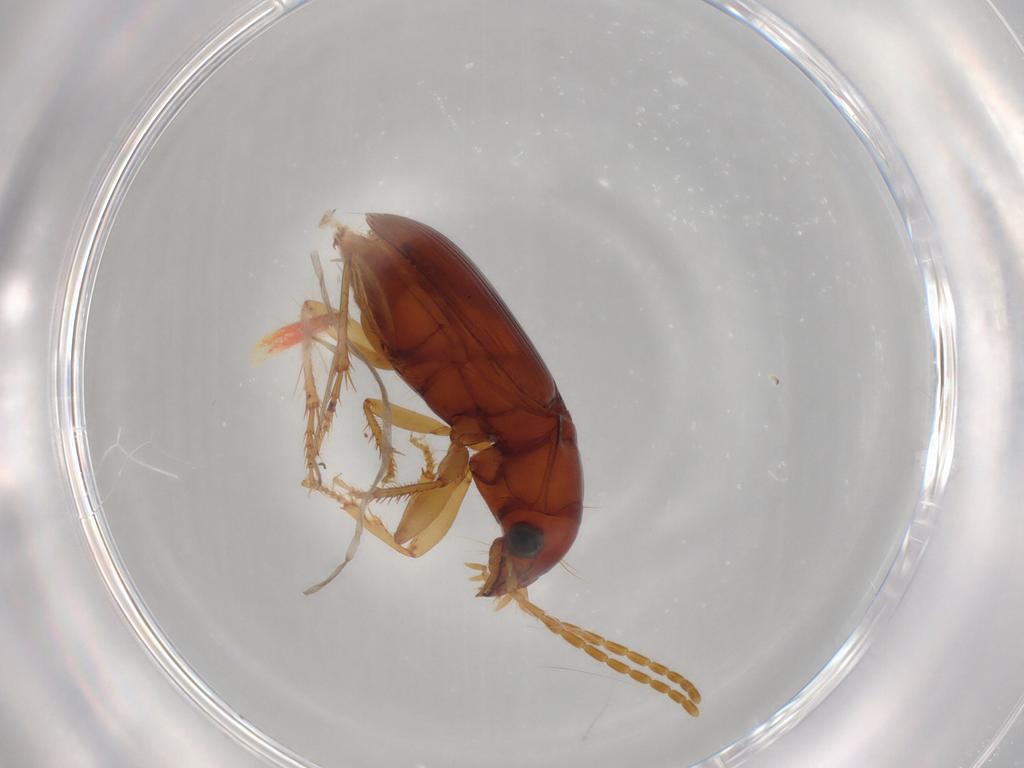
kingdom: Animalia
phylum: Arthropoda
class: Insecta
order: Coleoptera
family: Carabidae
